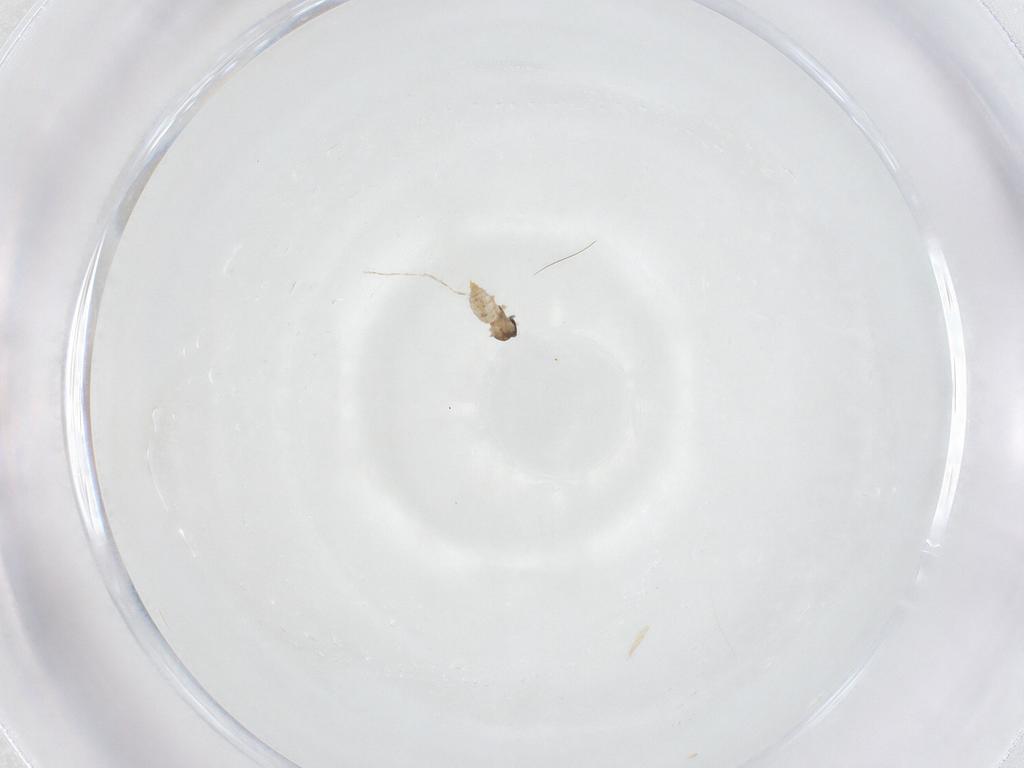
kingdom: Animalia
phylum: Arthropoda
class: Insecta
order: Diptera
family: Cecidomyiidae
